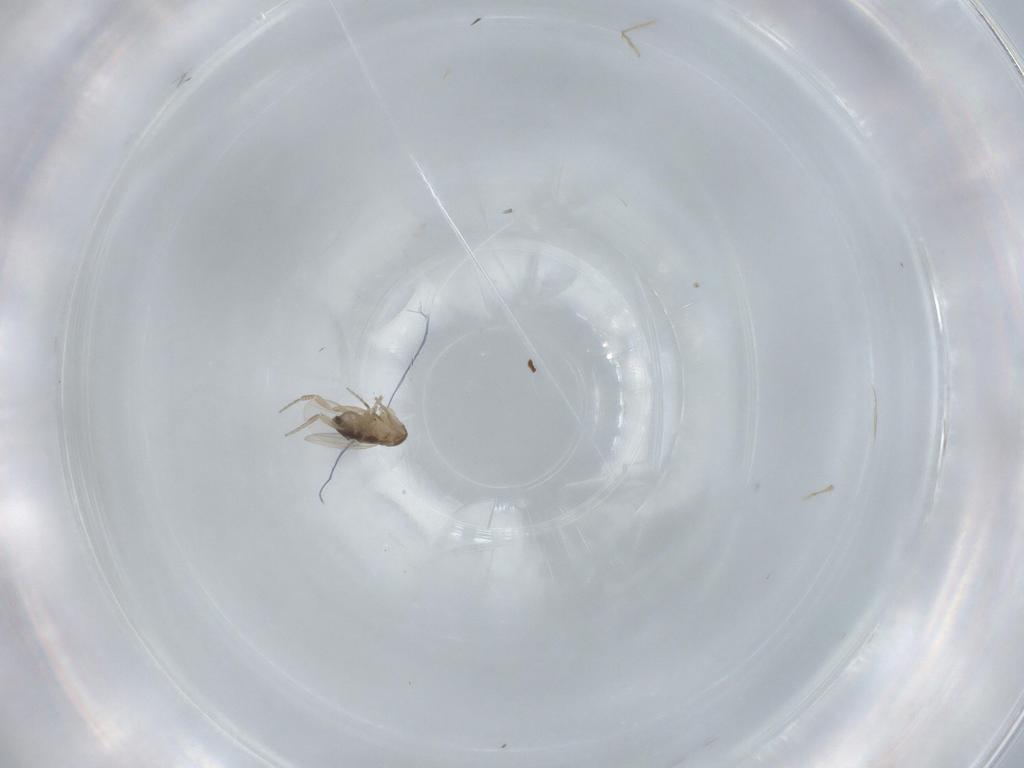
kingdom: Animalia
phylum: Arthropoda
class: Insecta
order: Diptera
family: Phoridae
